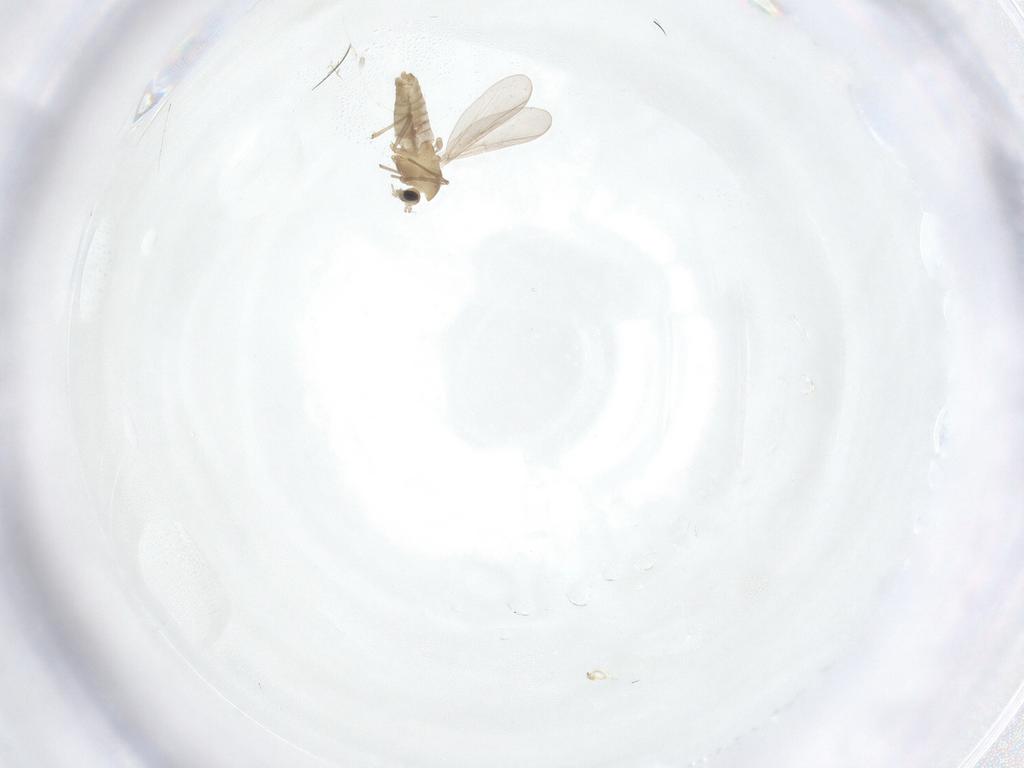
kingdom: Animalia
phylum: Arthropoda
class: Insecta
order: Diptera
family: Chironomidae
